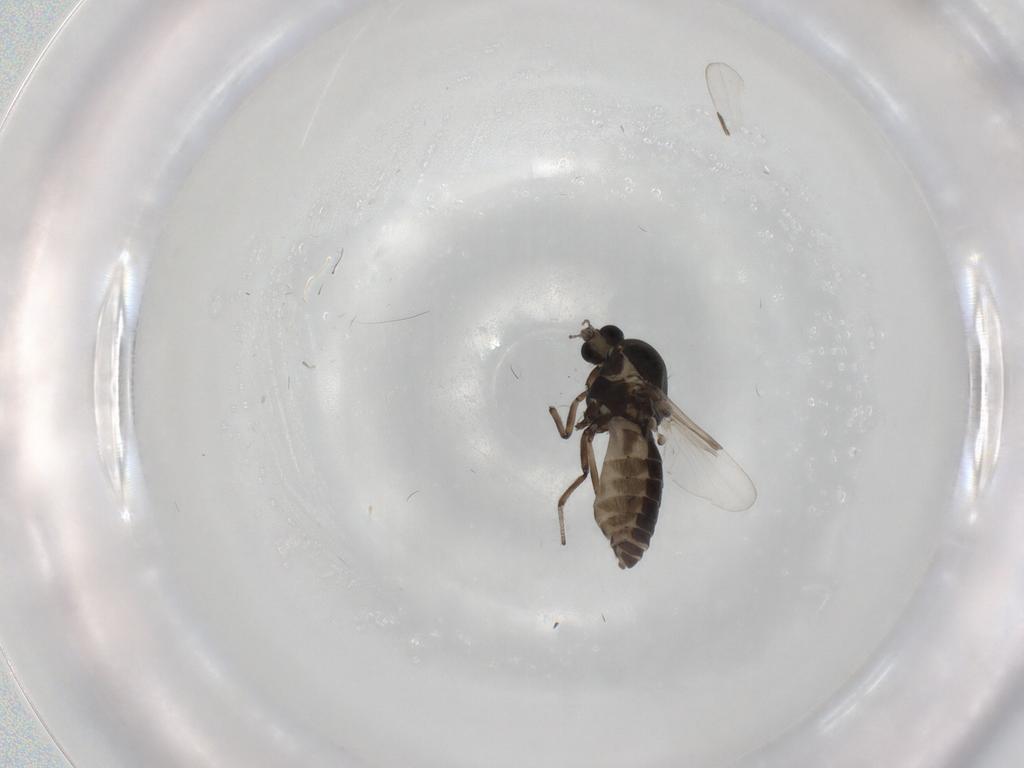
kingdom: Animalia
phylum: Arthropoda
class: Insecta
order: Diptera
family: Ceratopogonidae
